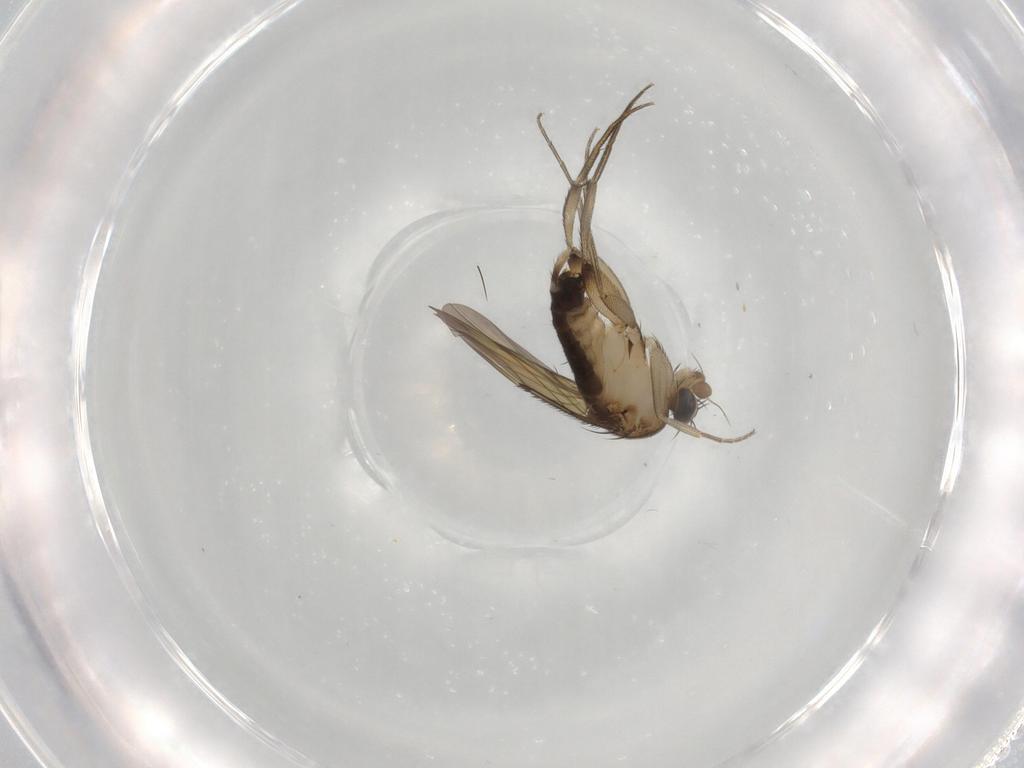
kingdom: Animalia
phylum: Arthropoda
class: Insecta
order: Diptera
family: Phoridae
